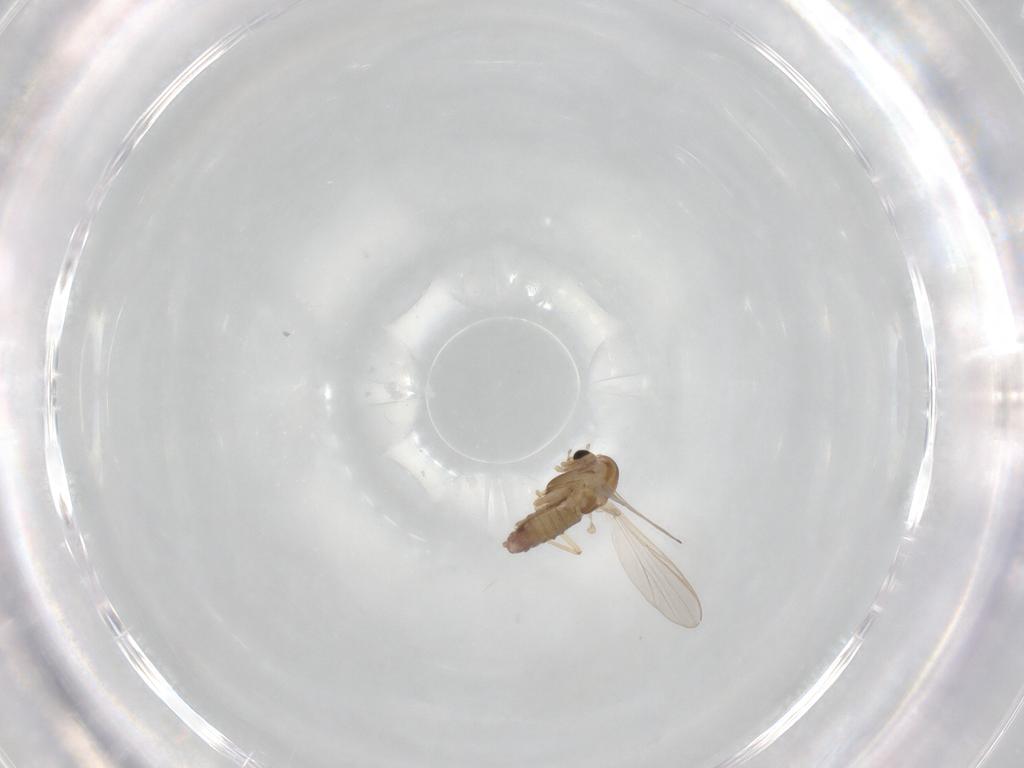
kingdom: Animalia
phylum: Arthropoda
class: Insecta
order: Diptera
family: Chironomidae
